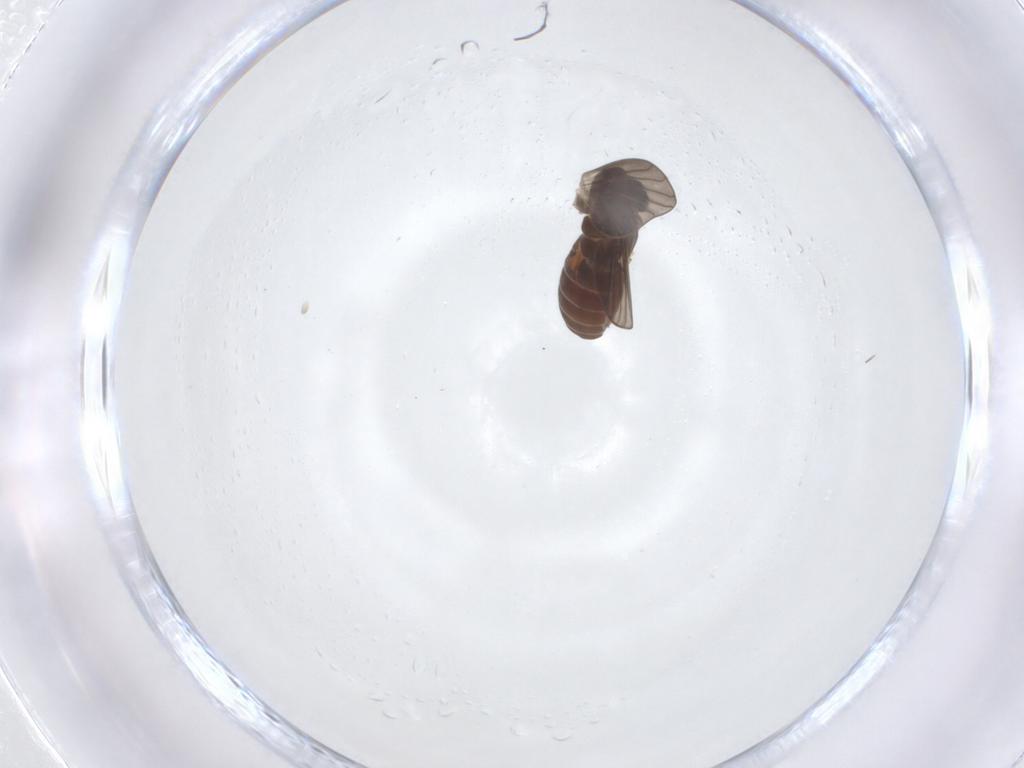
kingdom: Animalia
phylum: Arthropoda
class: Insecta
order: Diptera
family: Psychodidae
